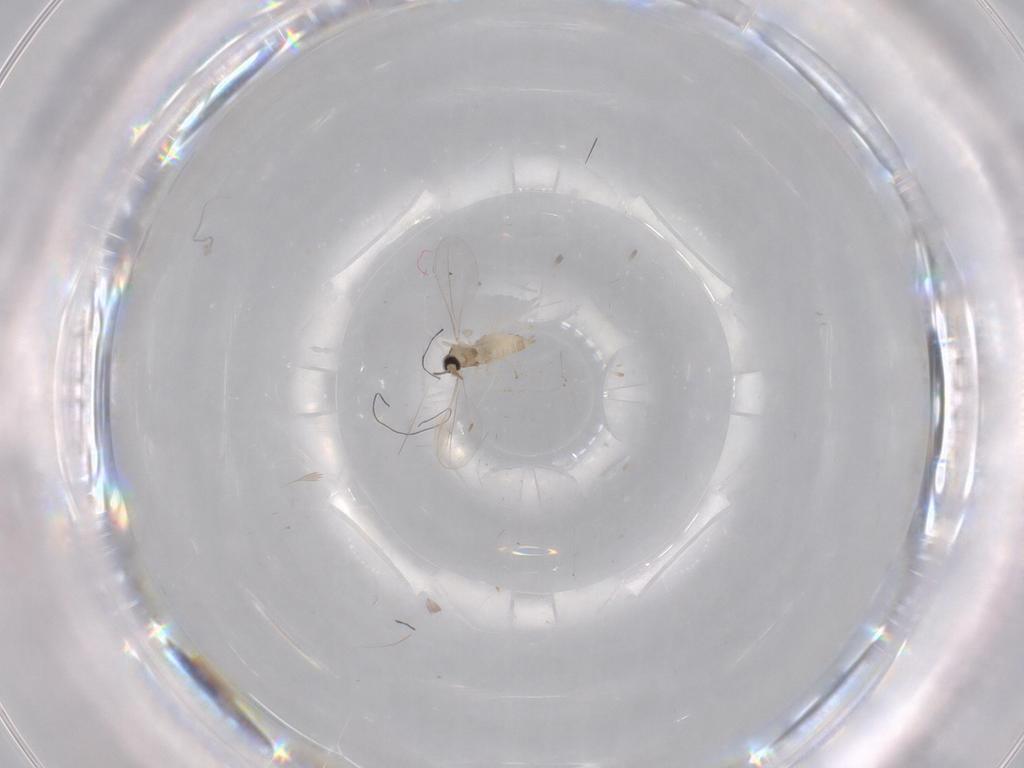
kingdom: Animalia
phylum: Arthropoda
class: Insecta
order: Diptera
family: Cecidomyiidae
